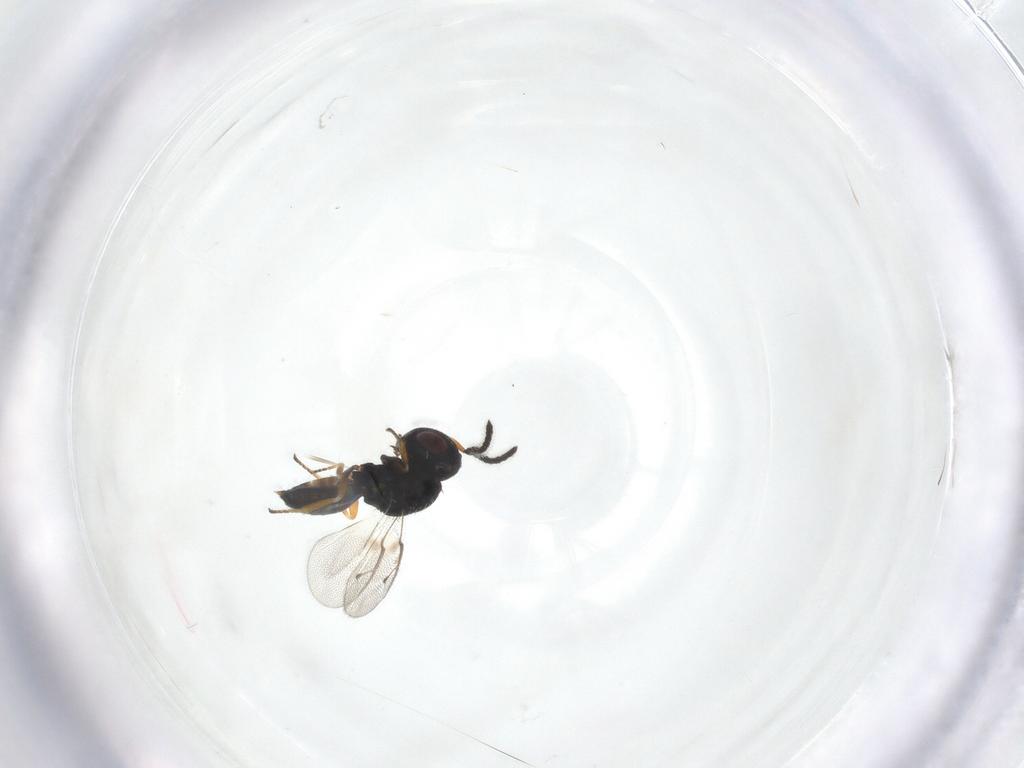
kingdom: Animalia
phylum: Arthropoda
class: Insecta
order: Hymenoptera
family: Pteromalidae
